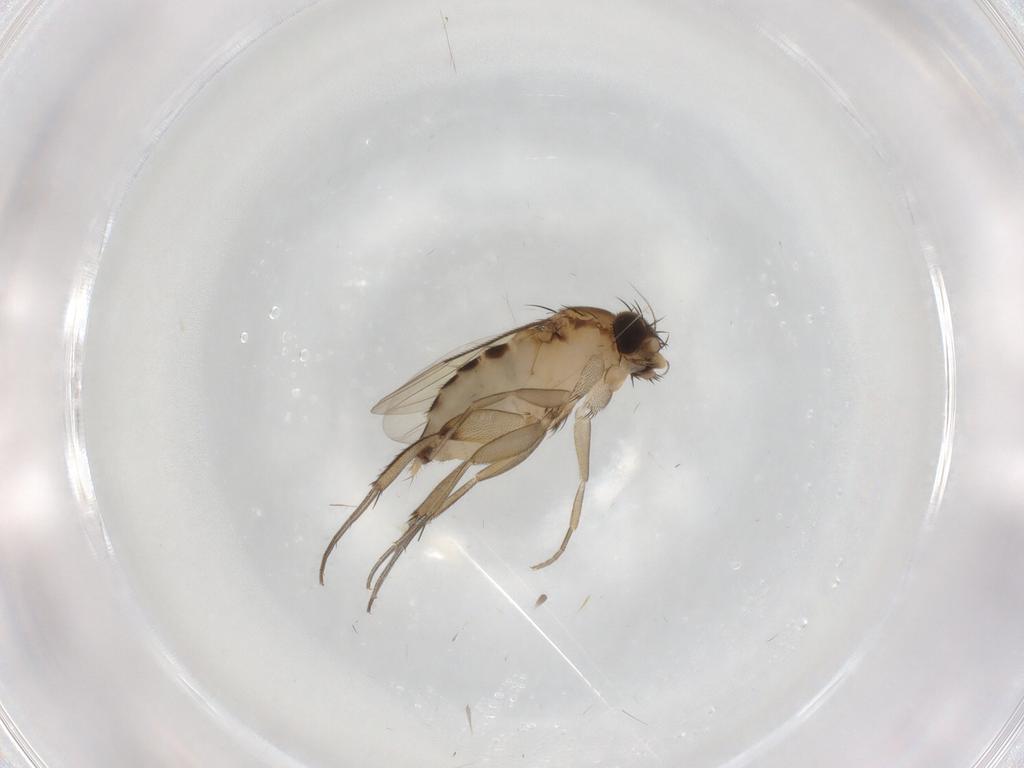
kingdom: Animalia
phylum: Arthropoda
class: Insecta
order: Diptera
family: Phoridae
